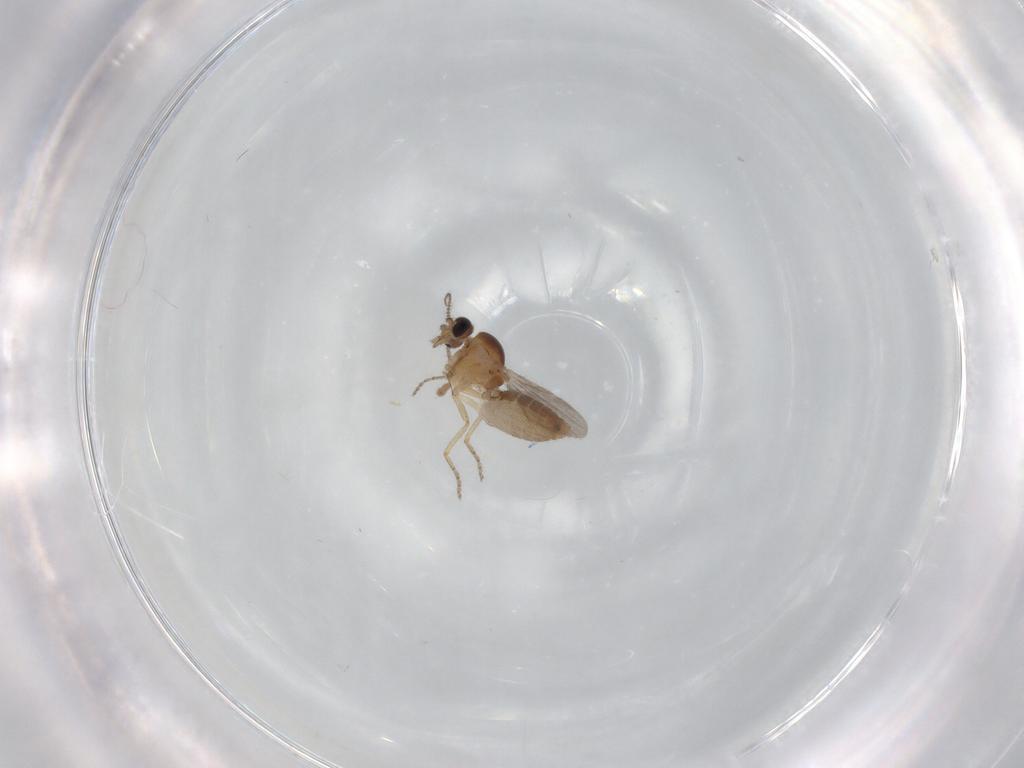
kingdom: Animalia
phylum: Arthropoda
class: Insecta
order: Diptera
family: Ceratopogonidae
